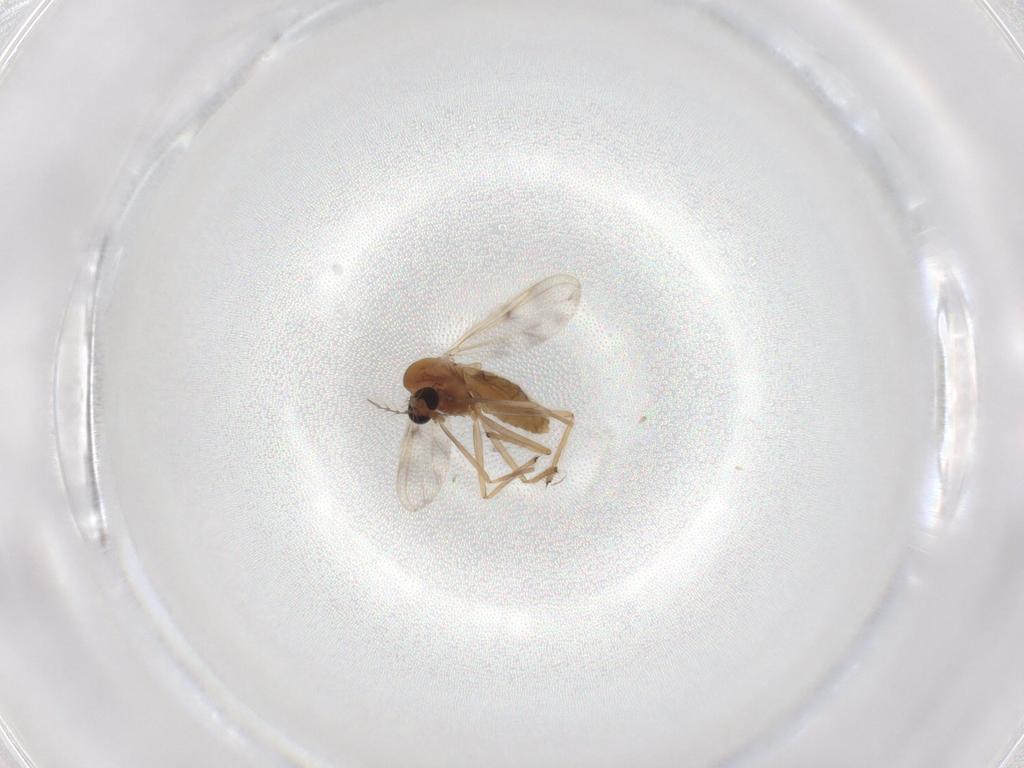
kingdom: Animalia
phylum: Arthropoda
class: Insecta
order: Diptera
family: Chironomidae
